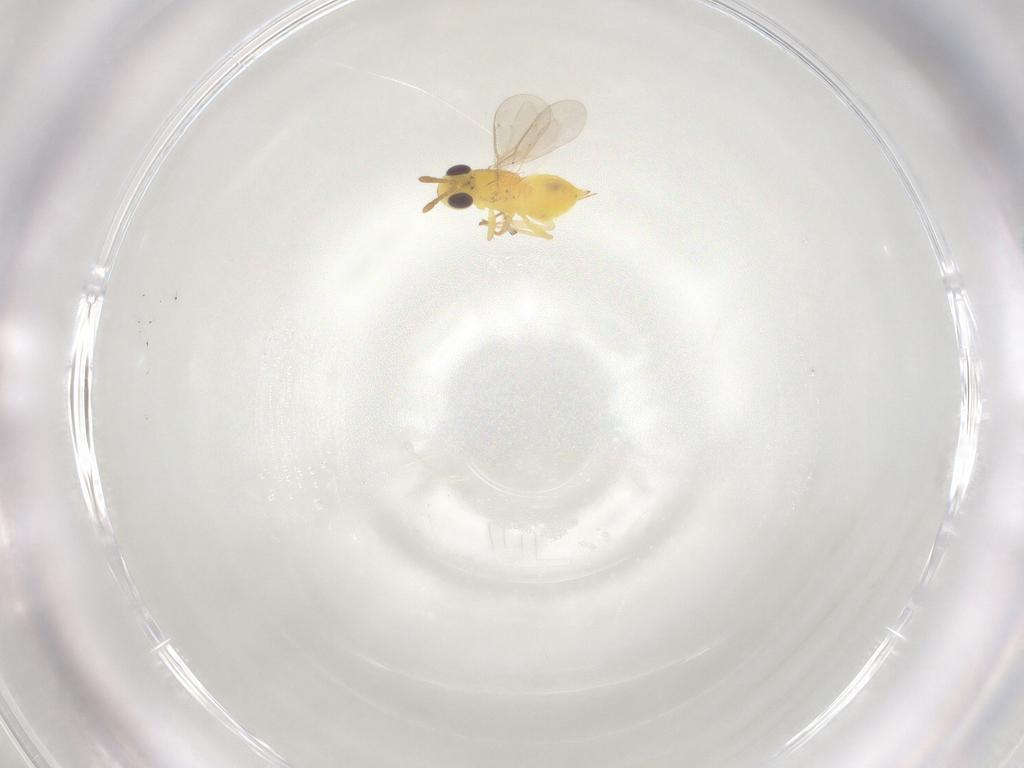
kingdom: Animalia
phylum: Arthropoda
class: Insecta
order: Hymenoptera
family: Aphelinidae
